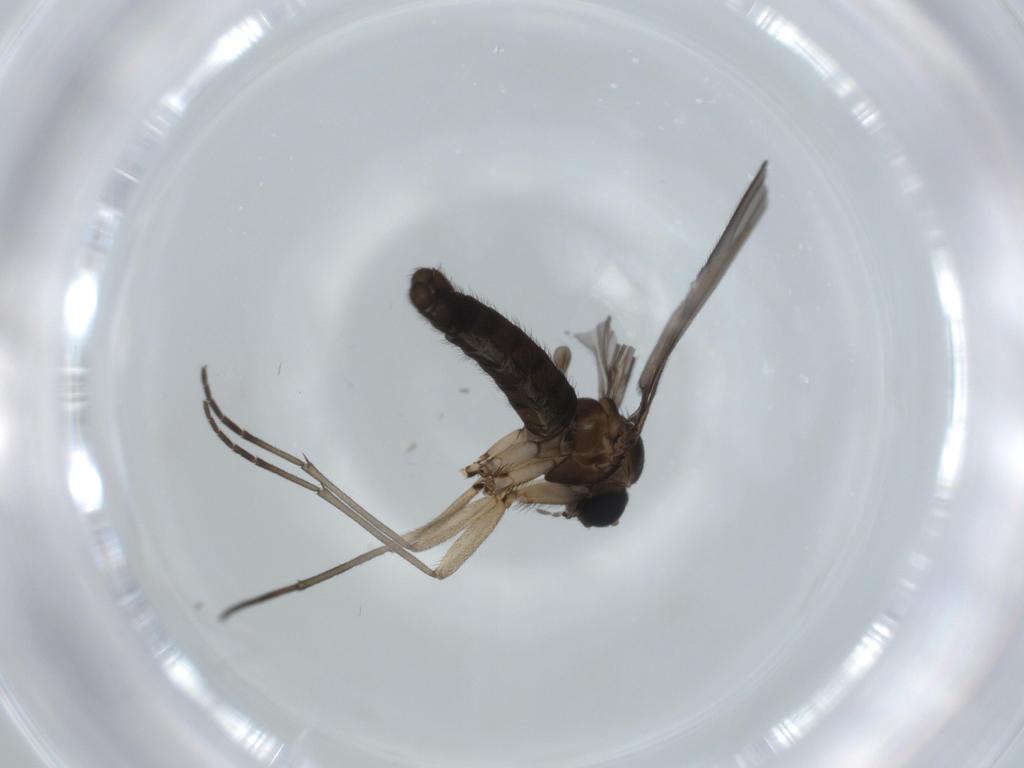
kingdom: Animalia
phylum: Arthropoda
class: Insecta
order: Diptera
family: Sciaridae
